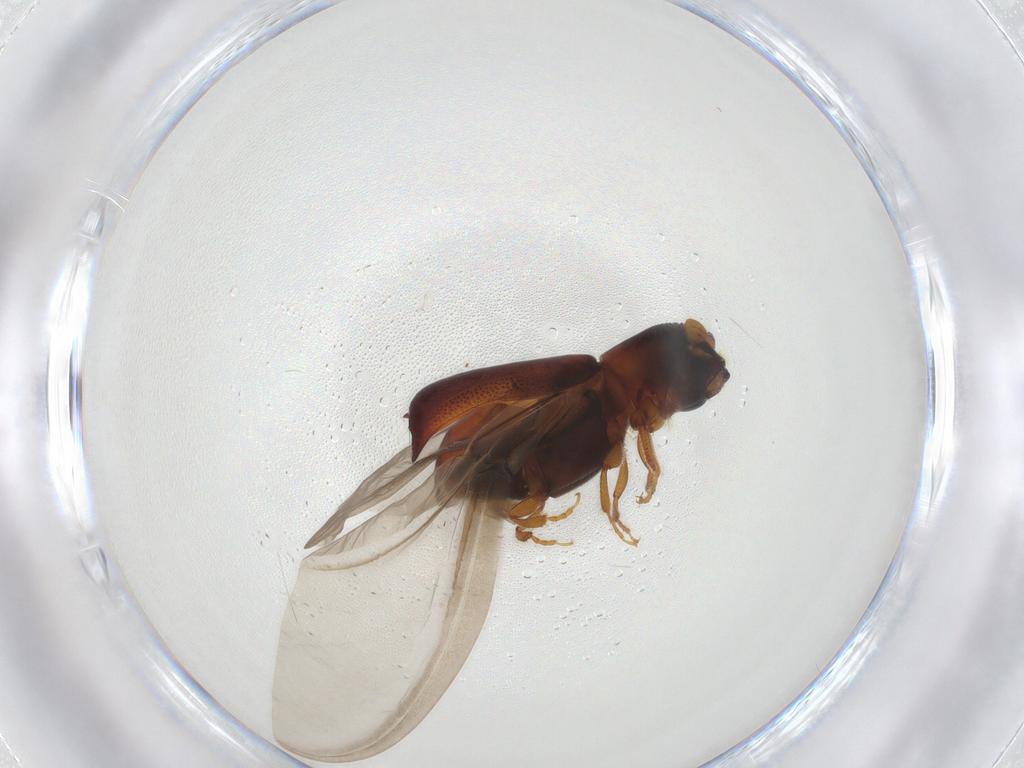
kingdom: Animalia
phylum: Arthropoda
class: Insecta
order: Coleoptera
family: Curculionidae
